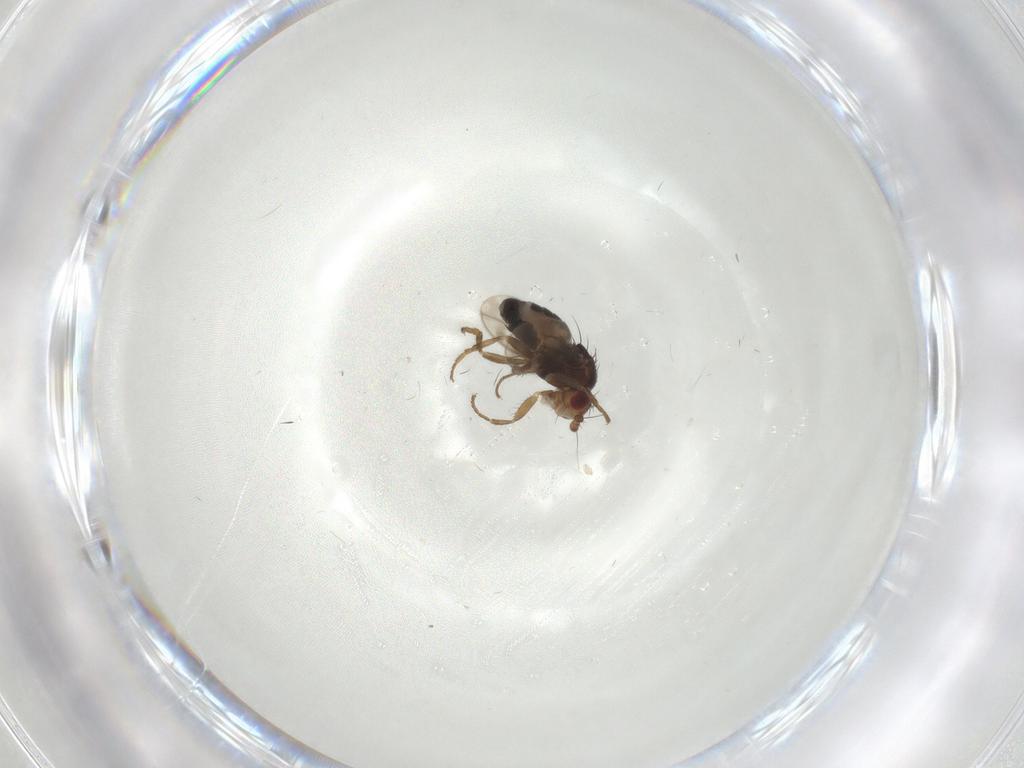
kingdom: Animalia
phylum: Arthropoda
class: Insecta
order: Diptera
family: Sphaeroceridae
